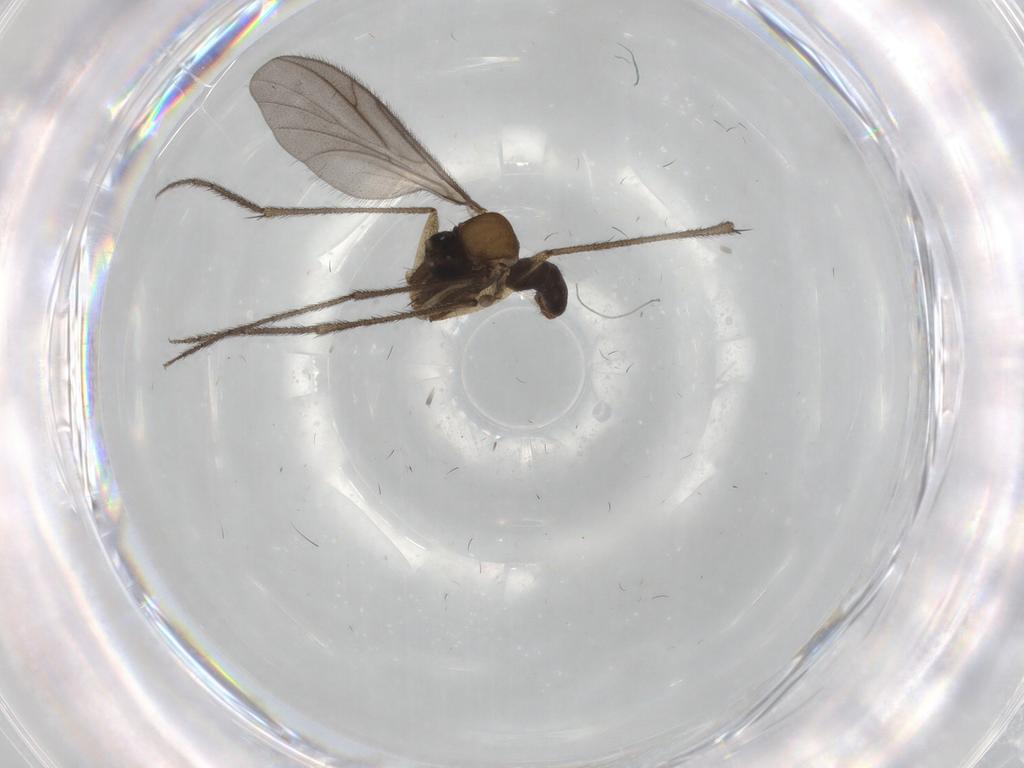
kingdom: Animalia
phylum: Arthropoda
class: Insecta
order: Diptera
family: Ditomyiidae
